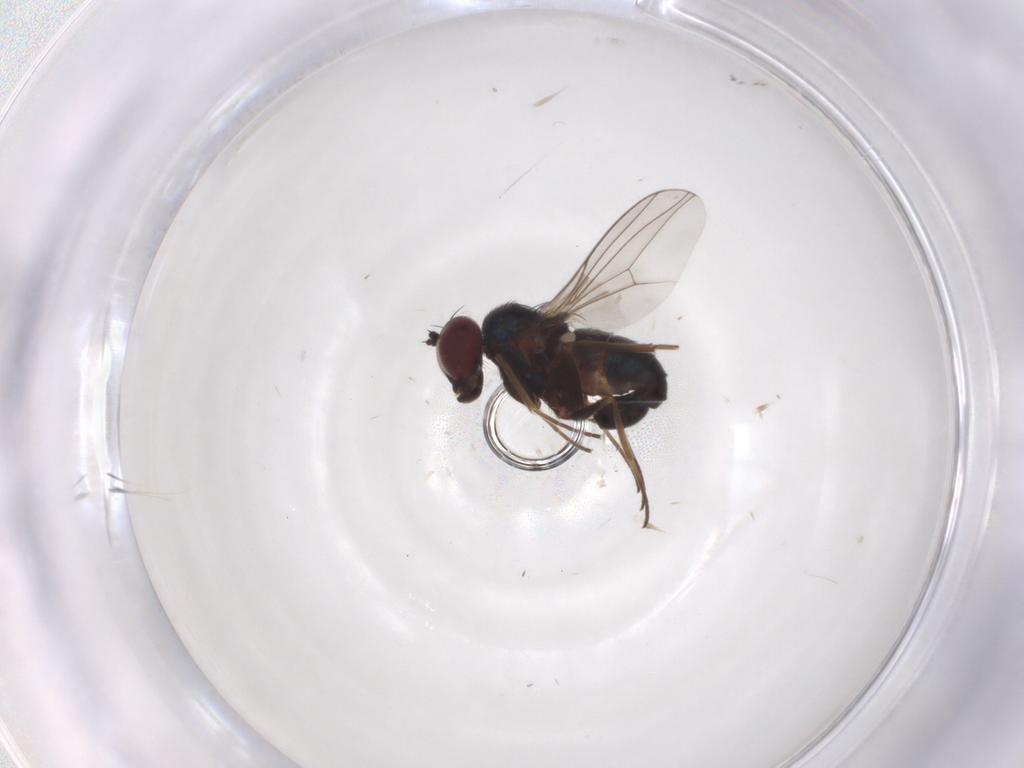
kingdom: Animalia
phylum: Arthropoda
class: Insecta
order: Diptera
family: Dolichopodidae
